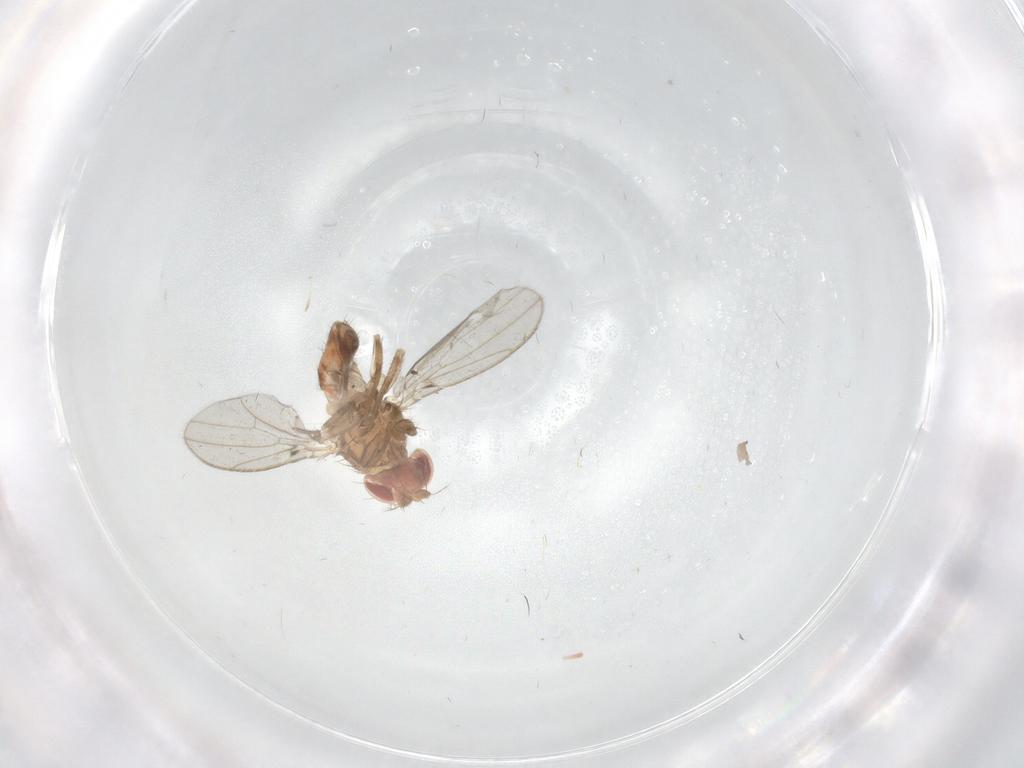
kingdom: Animalia
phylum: Arthropoda
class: Insecta
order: Diptera
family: Drosophilidae
